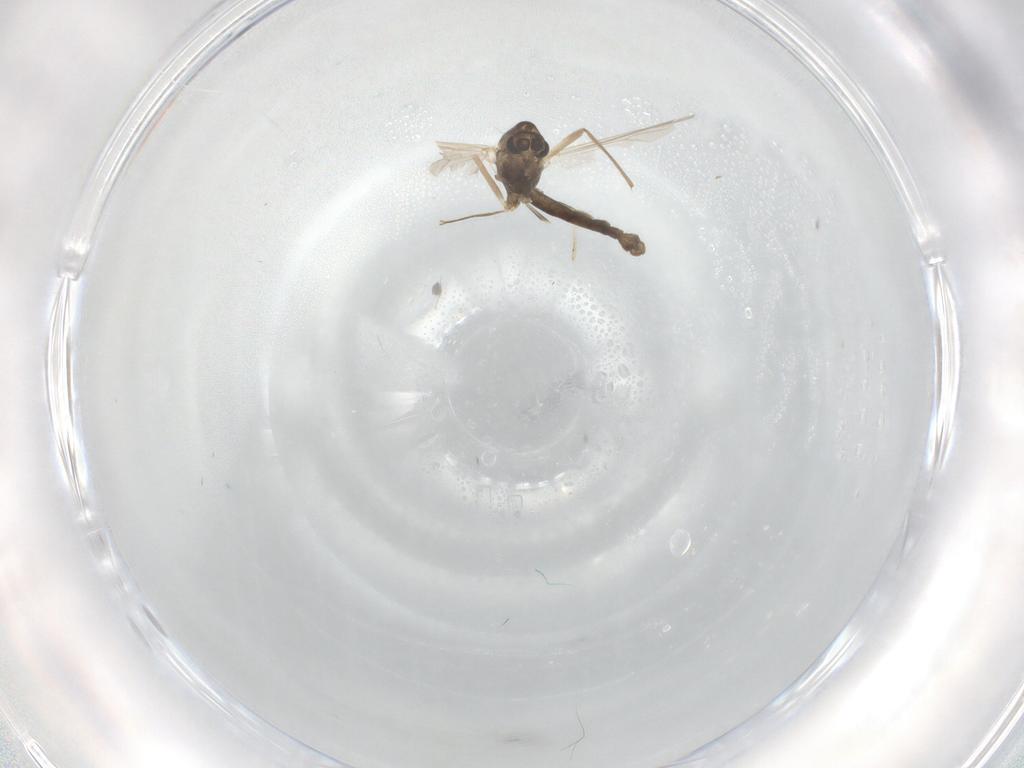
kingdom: Animalia
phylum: Arthropoda
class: Insecta
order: Diptera
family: Chironomidae
